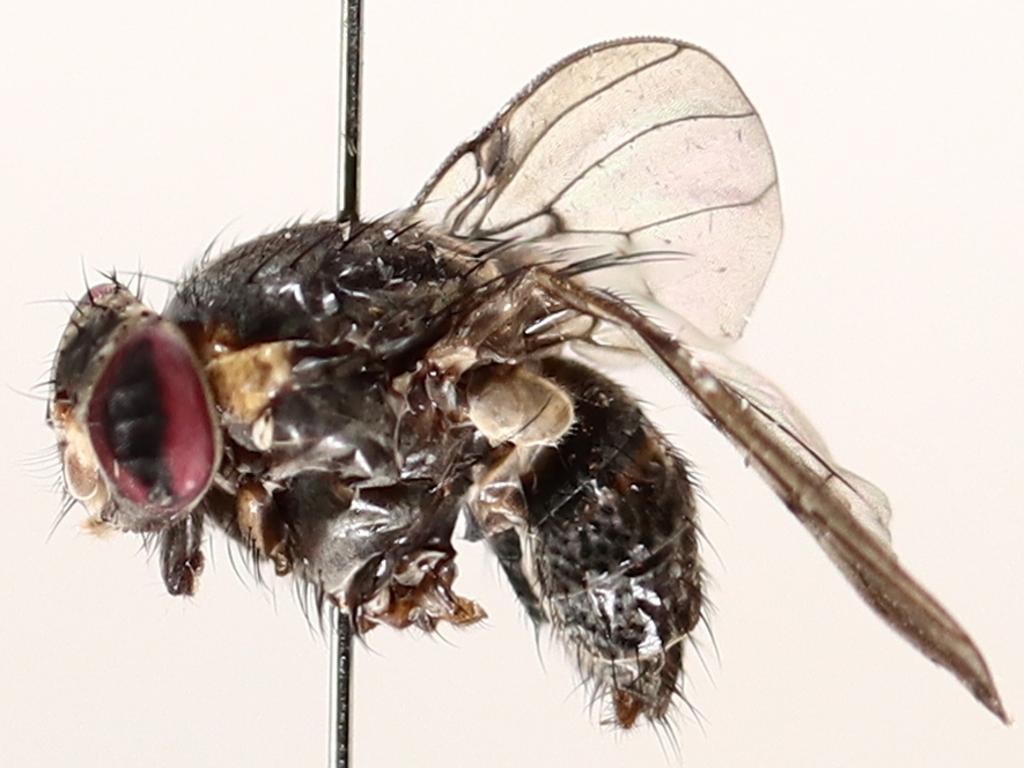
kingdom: Animalia
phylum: Arthropoda
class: Insecta
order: Diptera
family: Cecidomyiidae
